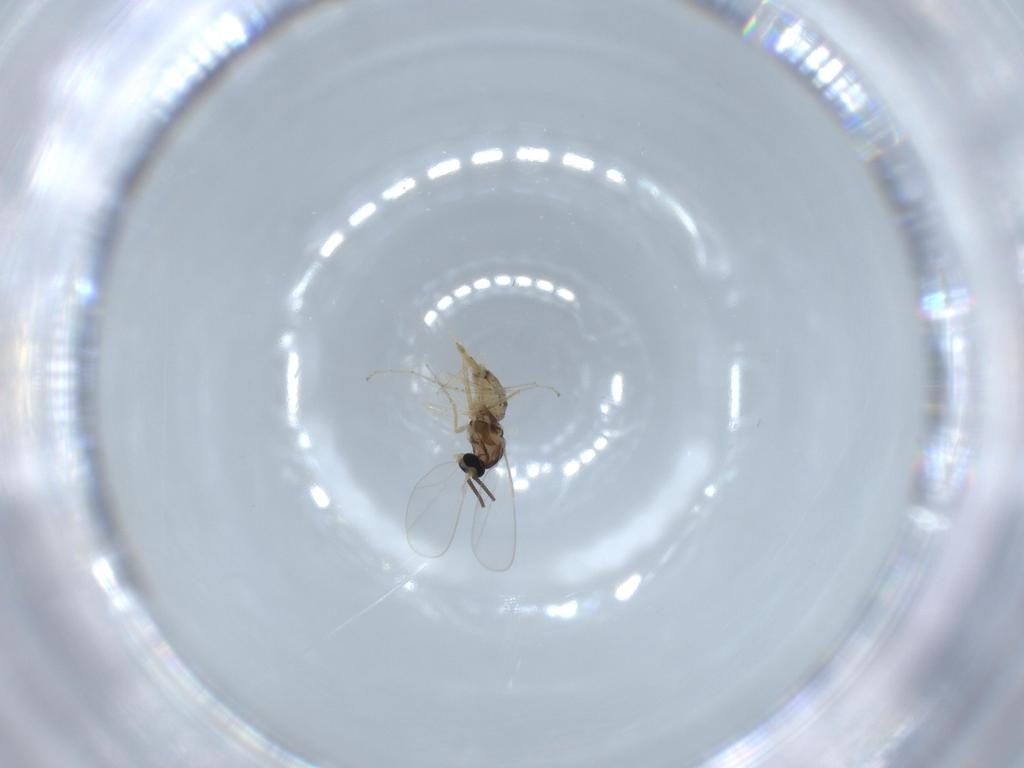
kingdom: Animalia
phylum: Arthropoda
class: Insecta
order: Diptera
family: Cecidomyiidae
